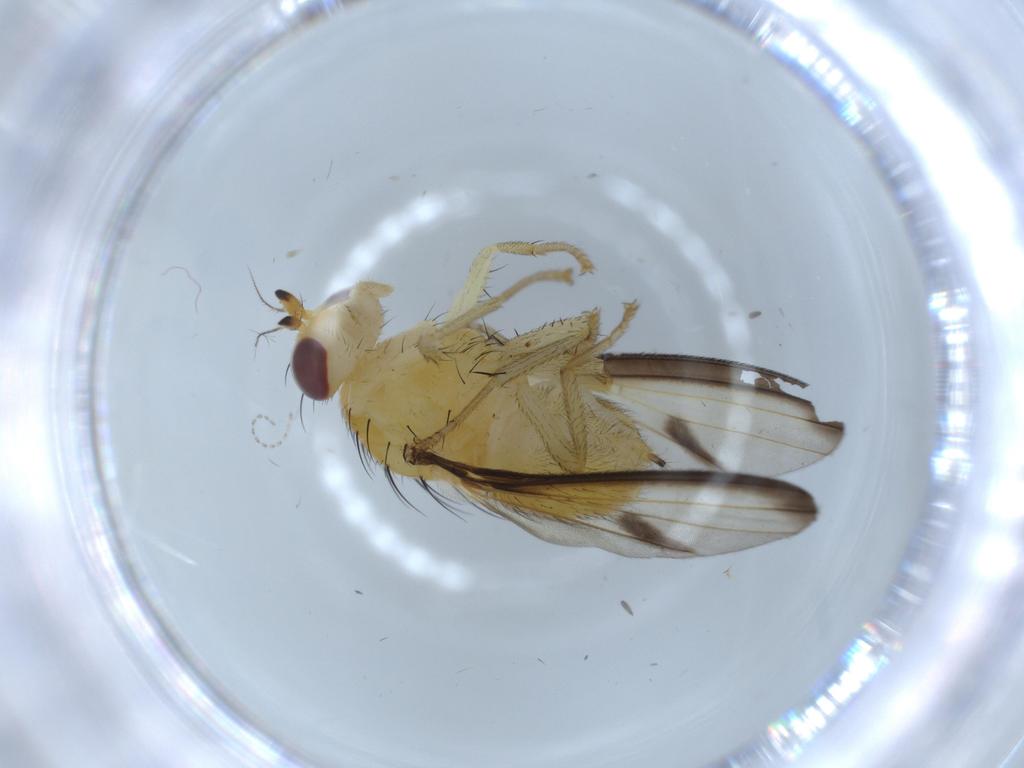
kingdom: Animalia
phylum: Arthropoda
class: Insecta
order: Diptera
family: Lauxaniidae
